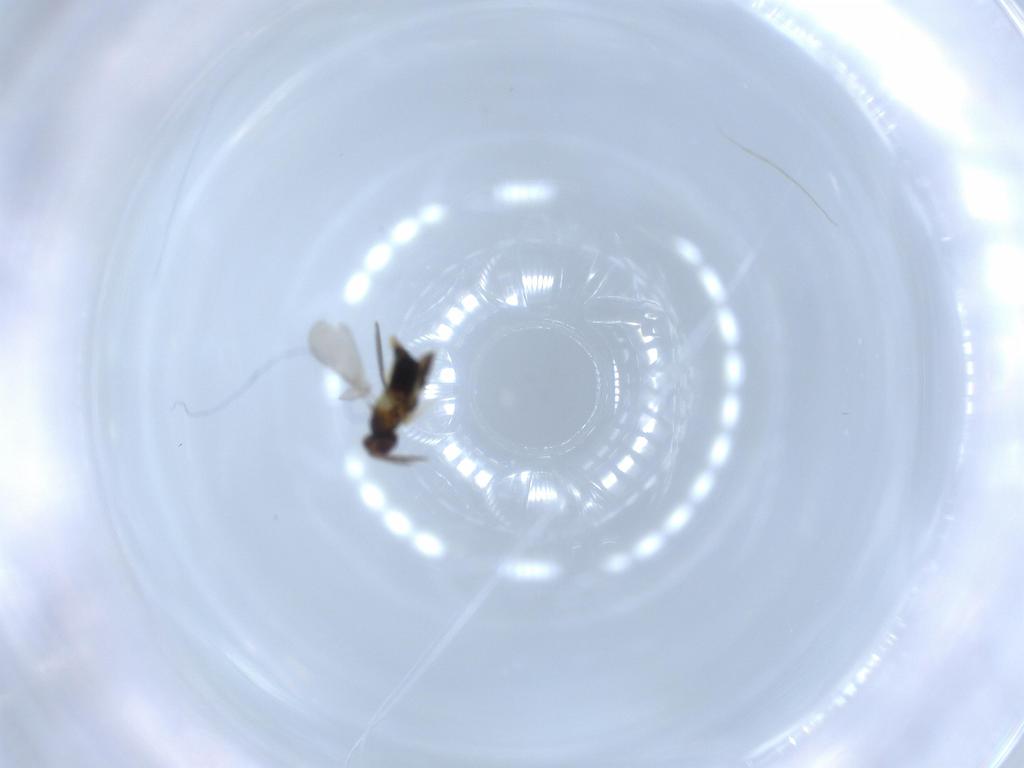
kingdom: Animalia
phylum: Arthropoda
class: Insecta
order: Hymenoptera
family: Aphelinidae
